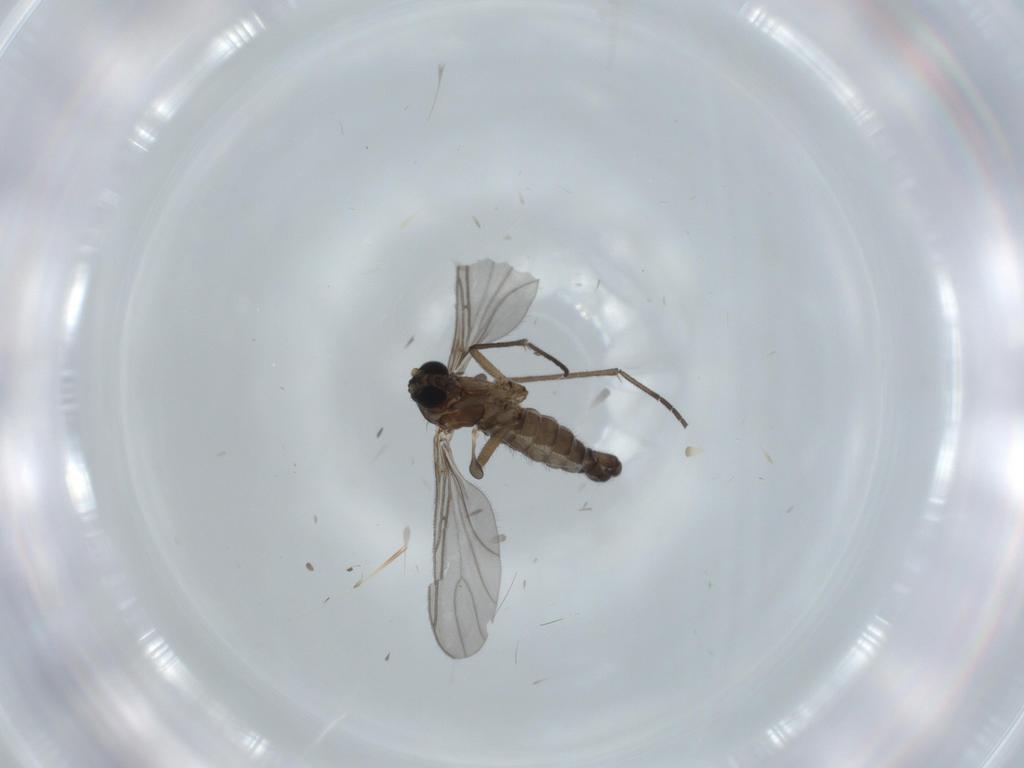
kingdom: Animalia
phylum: Arthropoda
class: Insecta
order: Diptera
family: Sciaridae
